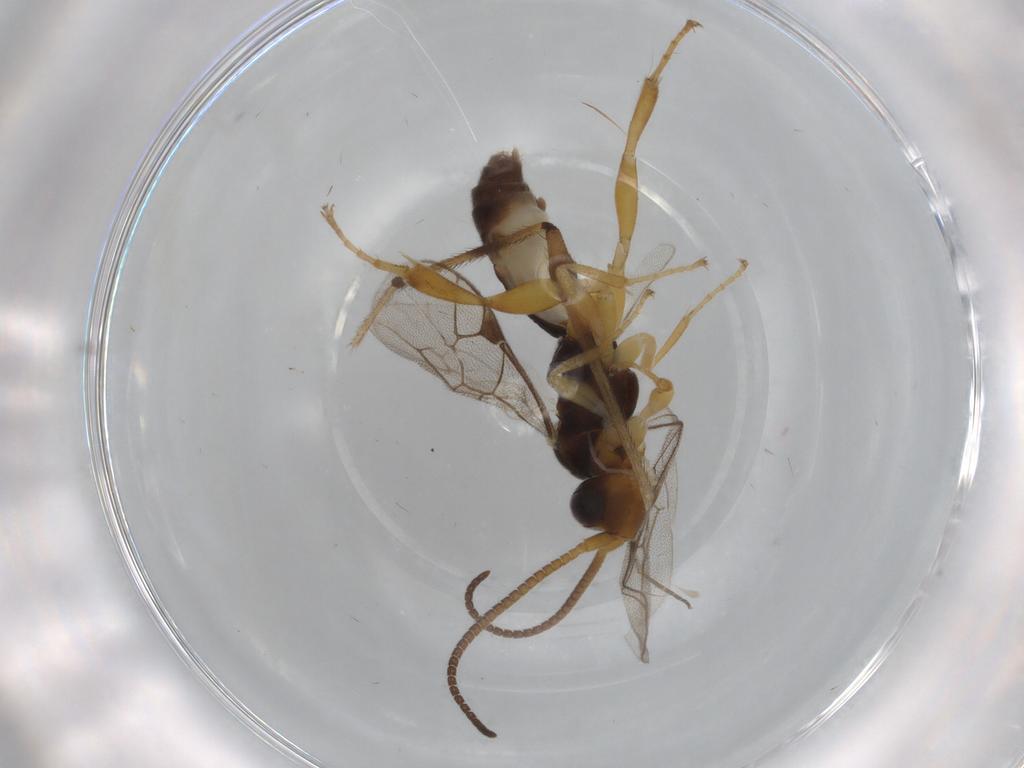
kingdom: Animalia
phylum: Arthropoda
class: Insecta
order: Hymenoptera
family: Ichneumonidae
